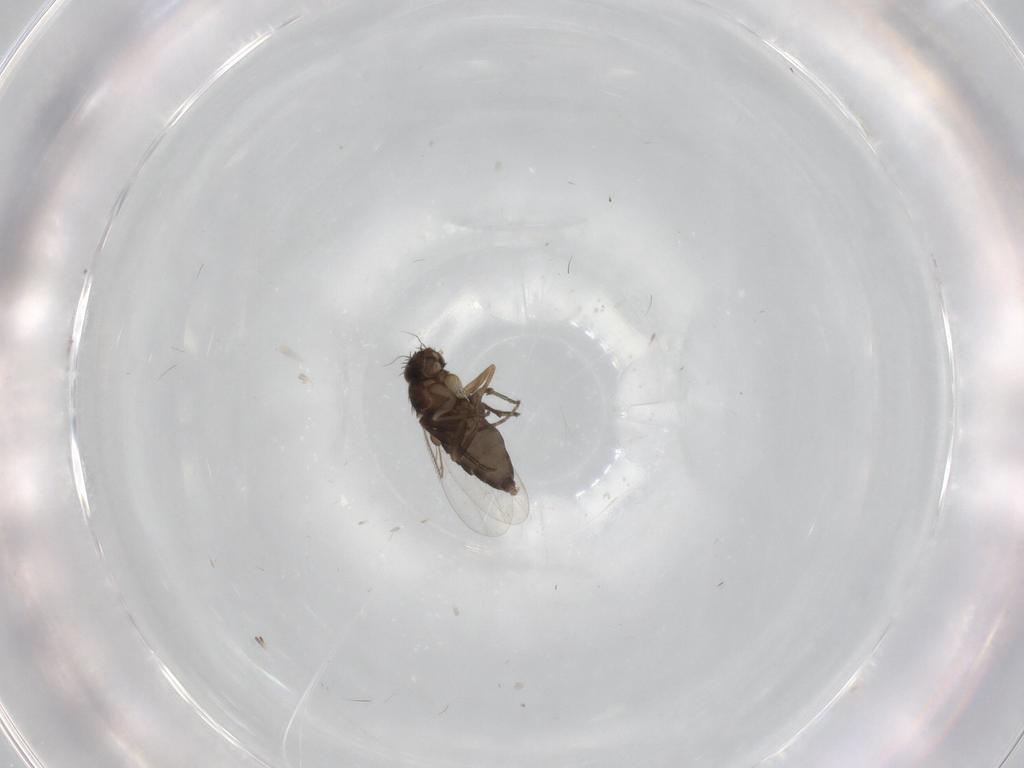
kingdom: Animalia
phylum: Arthropoda
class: Insecta
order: Diptera
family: Phoridae
